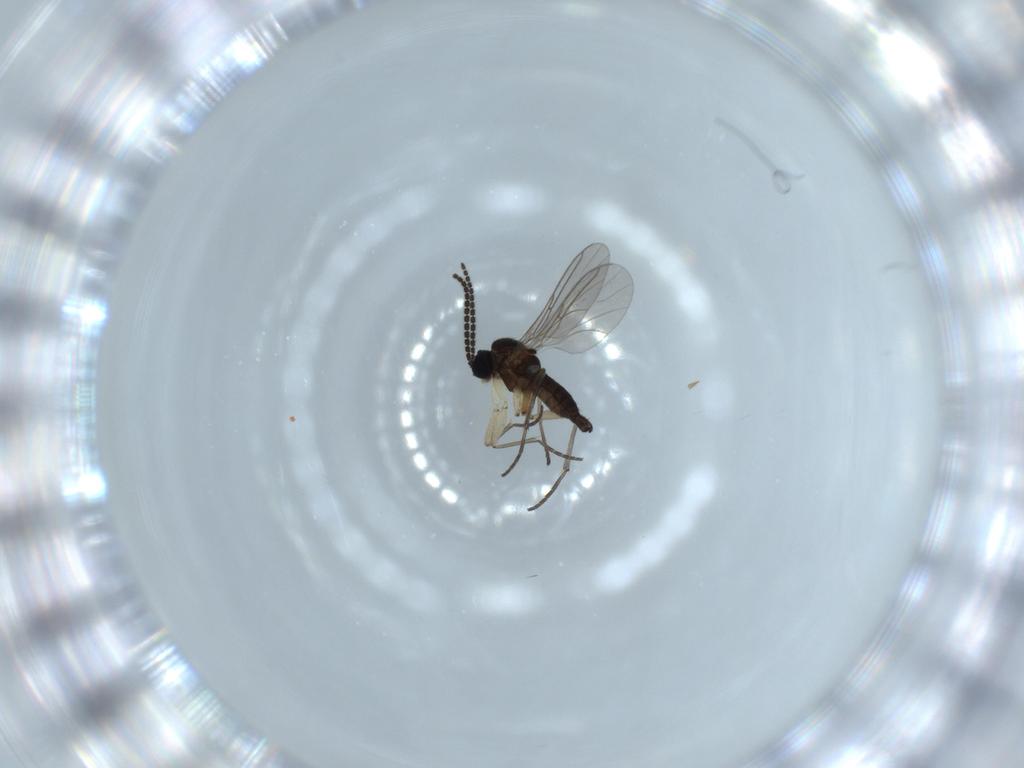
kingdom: Animalia
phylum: Arthropoda
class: Insecta
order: Diptera
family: Sciaridae
